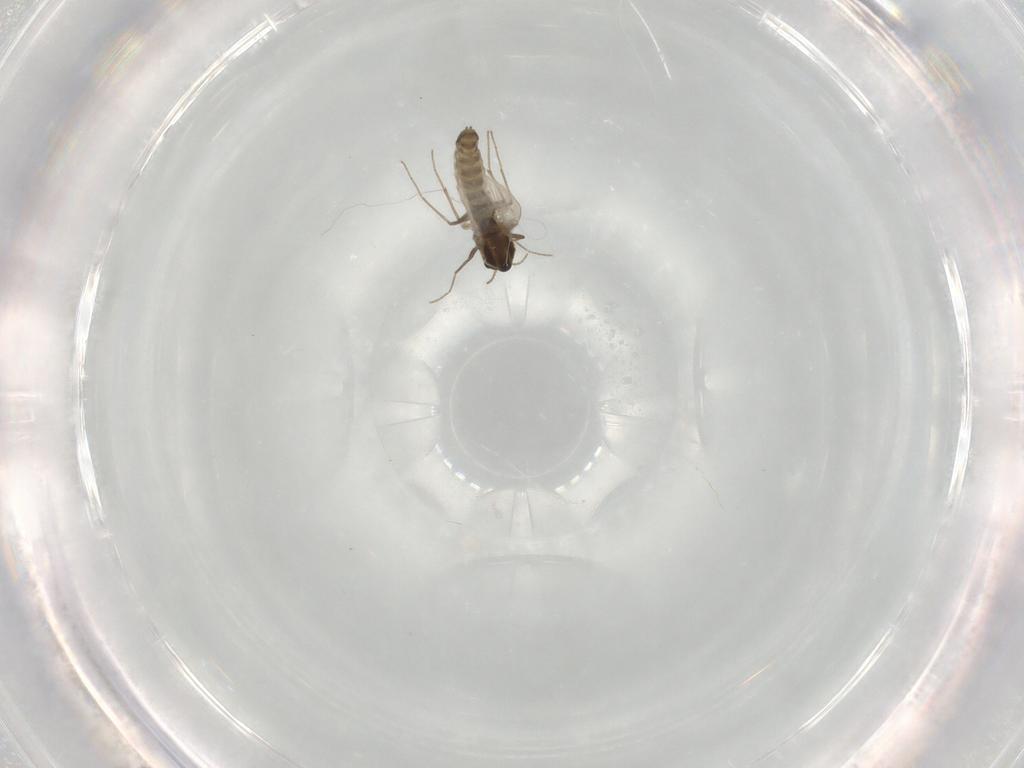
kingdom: Animalia
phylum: Arthropoda
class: Insecta
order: Diptera
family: Chironomidae
